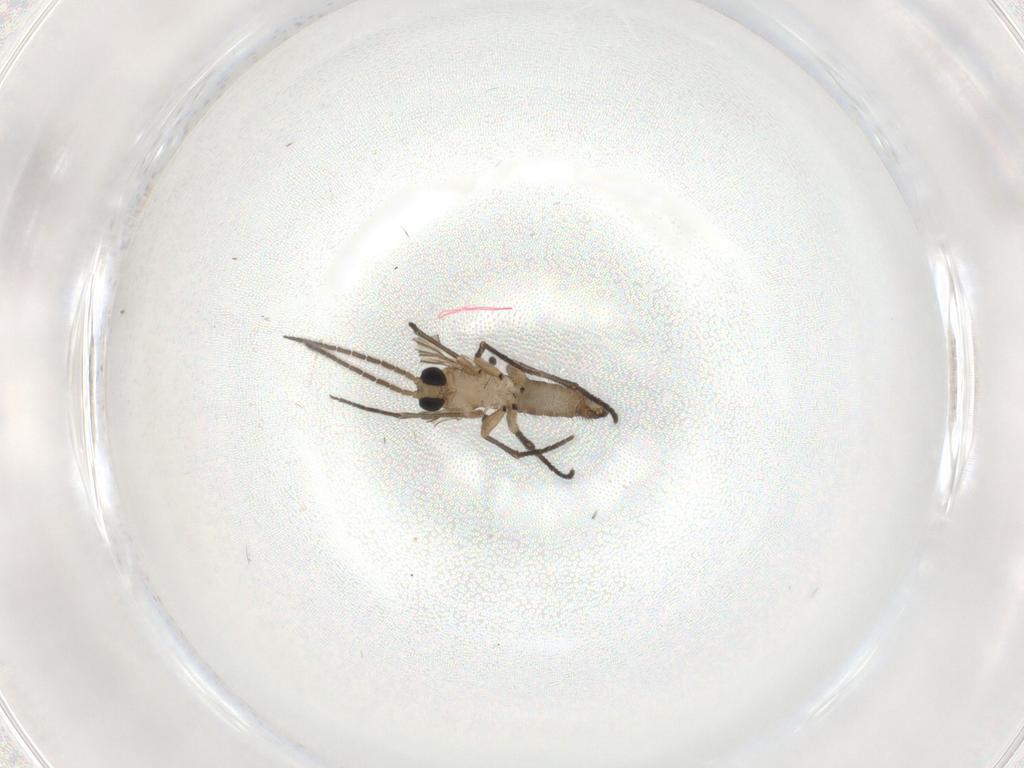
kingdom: Animalia
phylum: Arthropoda
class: Insecta
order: Diptera
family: Sciaridae
